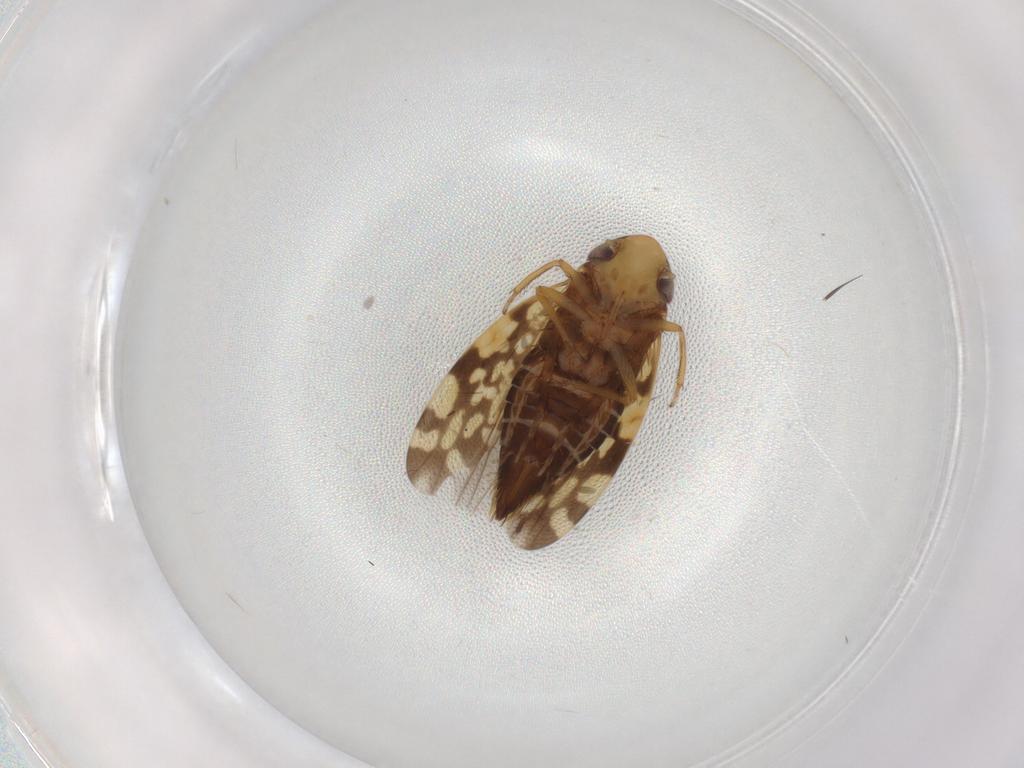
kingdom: Animalia
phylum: Arthropoda
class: Insecta
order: Hemiptera
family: Cicadellidae
